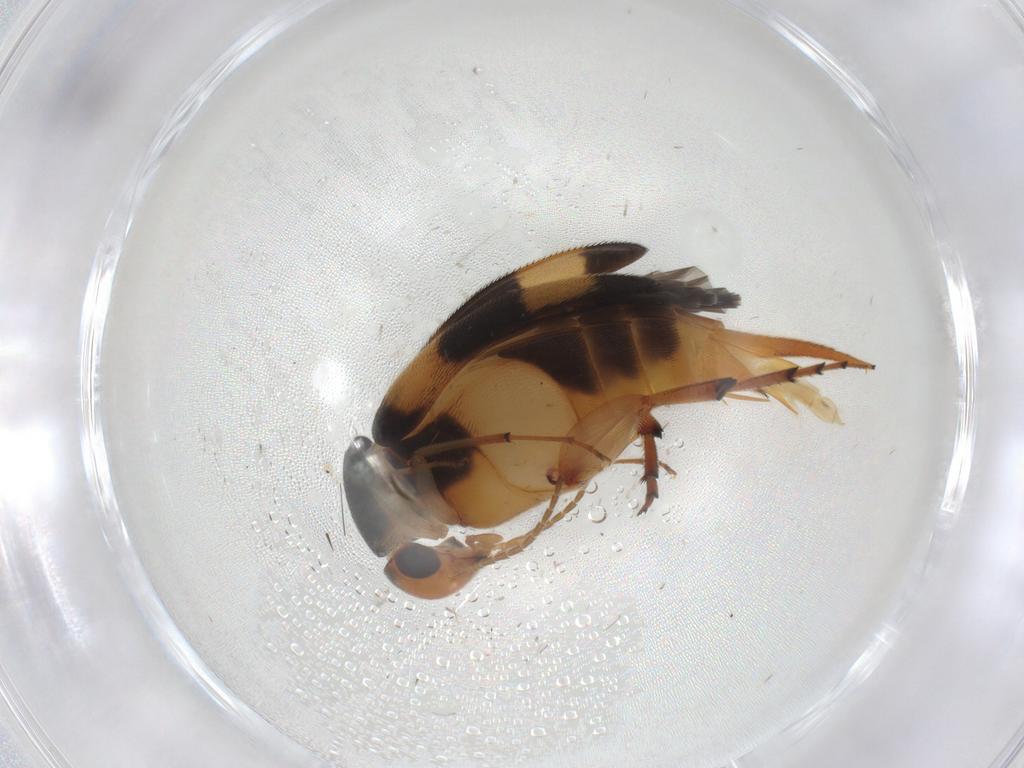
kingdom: Animalia
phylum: Arthropoda
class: Insecta
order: Coleoptera
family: Mordellidae
